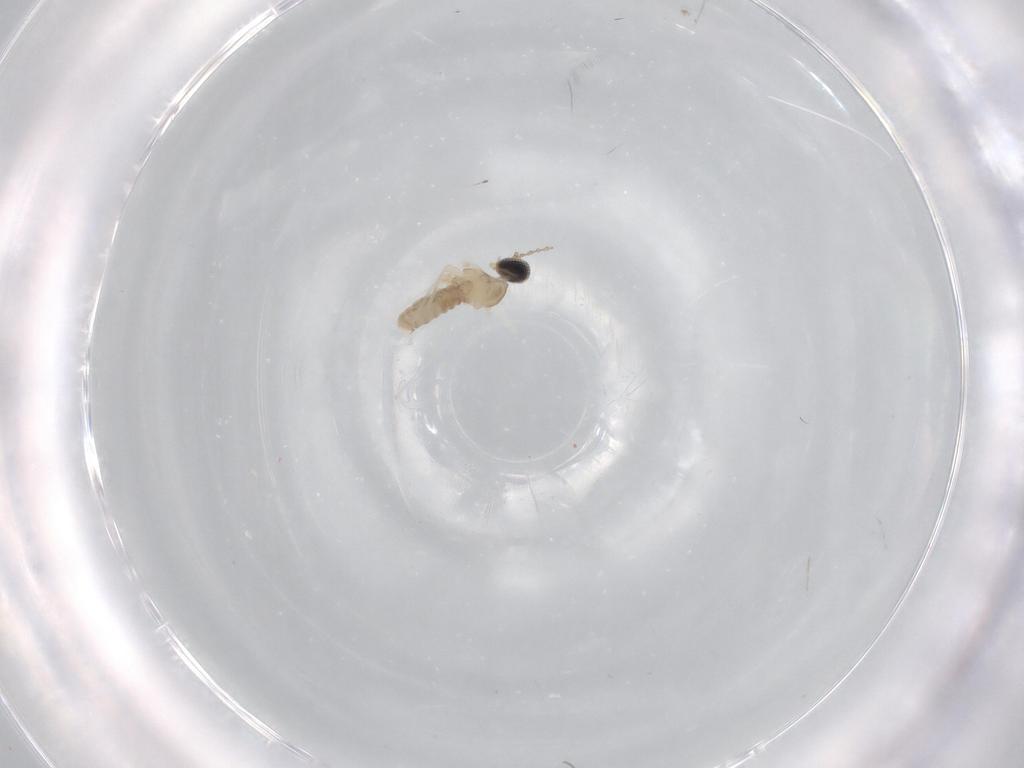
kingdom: Animalia
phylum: Arthropoda
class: Insecta
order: Diptera
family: Cecidomyiidae
